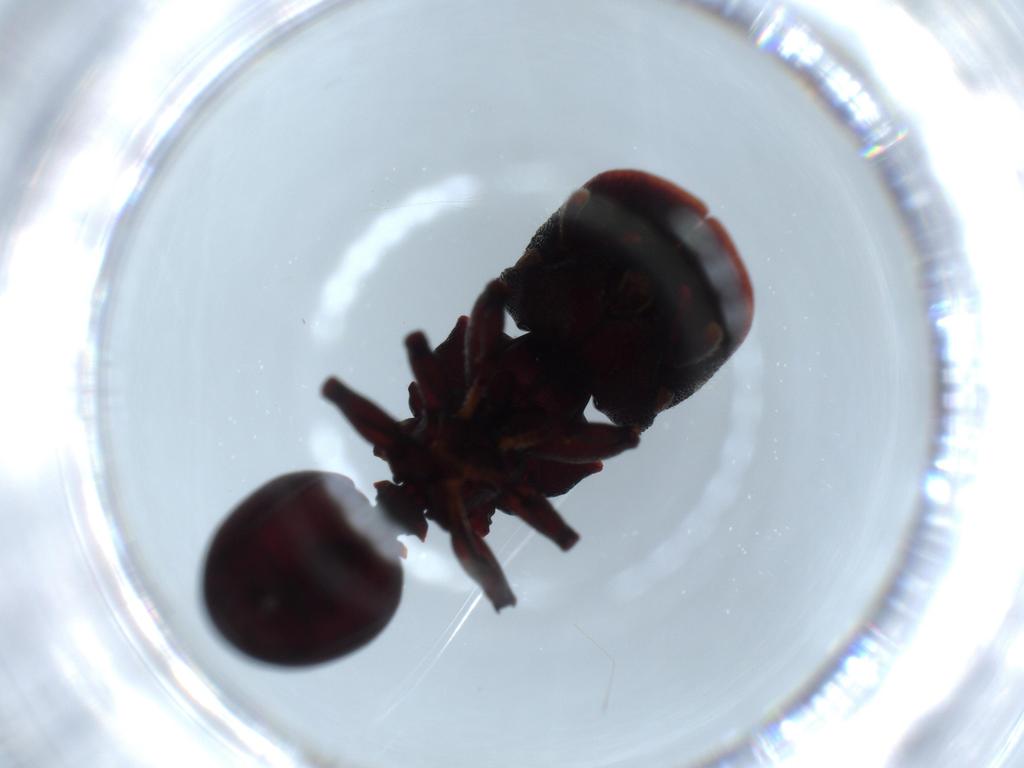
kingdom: Animalia
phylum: Arthropoda
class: Insecta
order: Hymenoptera
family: Formicidae
